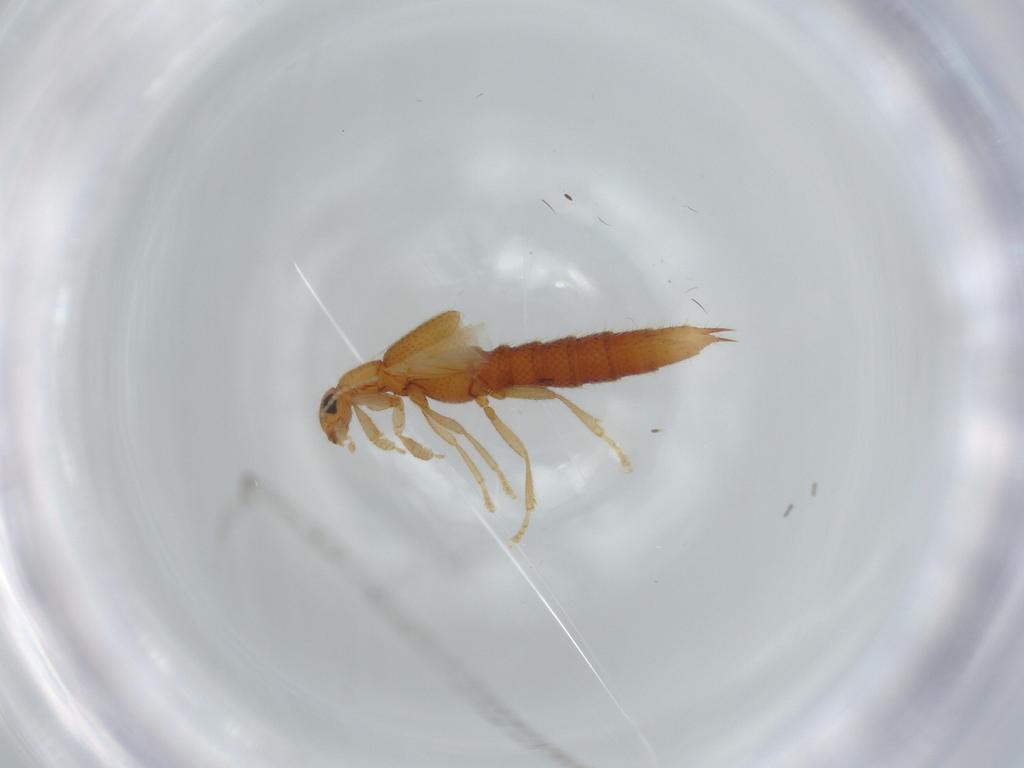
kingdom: Animalia
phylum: Arthropoda
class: Insecta
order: Coleoptera
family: Staphylinidae
